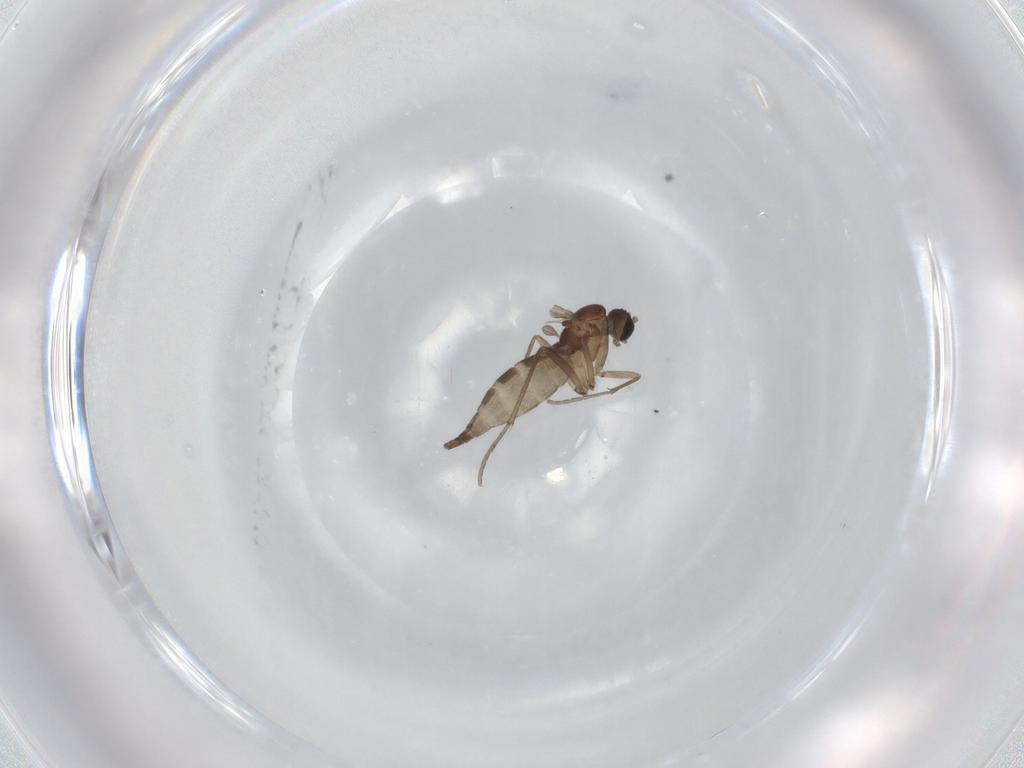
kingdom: Animalia
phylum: Arthropoda
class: Insecta
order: Diptera
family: Sciaridae
